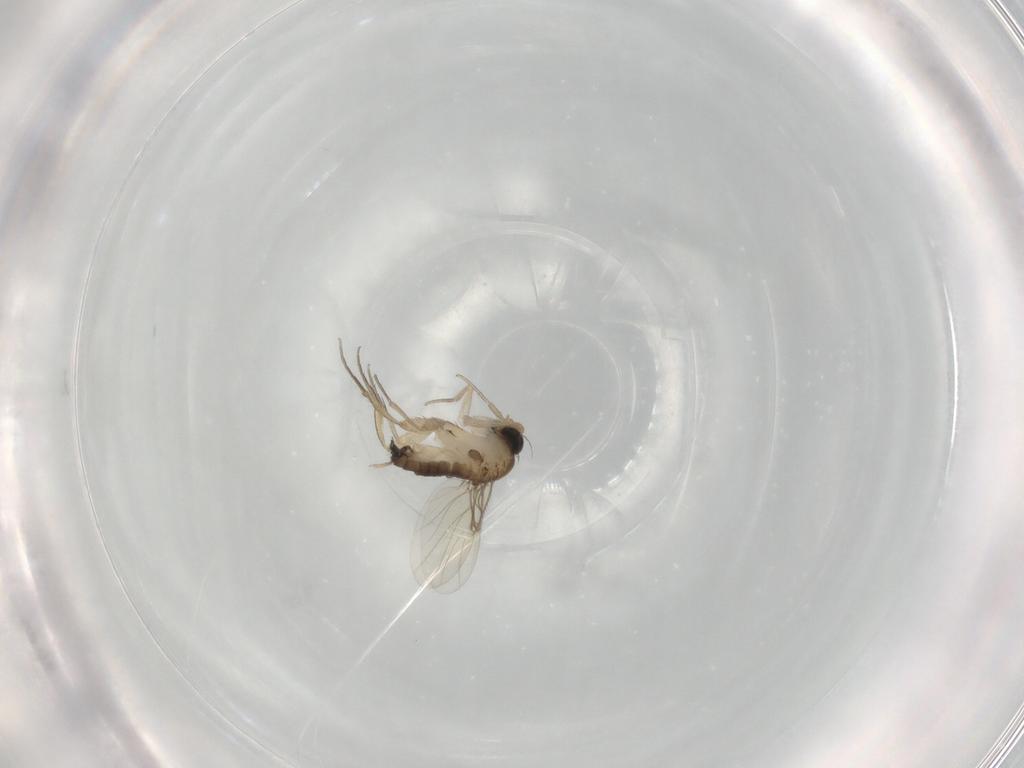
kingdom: Animalia
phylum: Arthropoda
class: Insecta
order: Diptera
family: Phoridae
